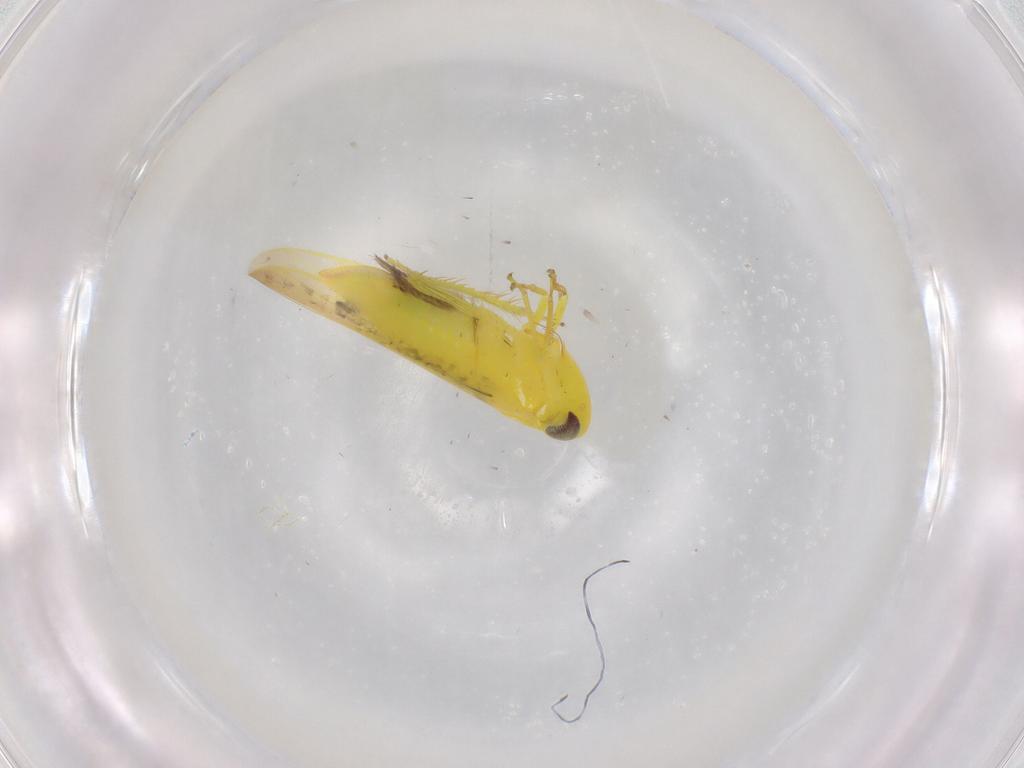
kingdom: Animalia
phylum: Arthropoda
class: Insecta
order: Hemiptera
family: Cicadellidae
